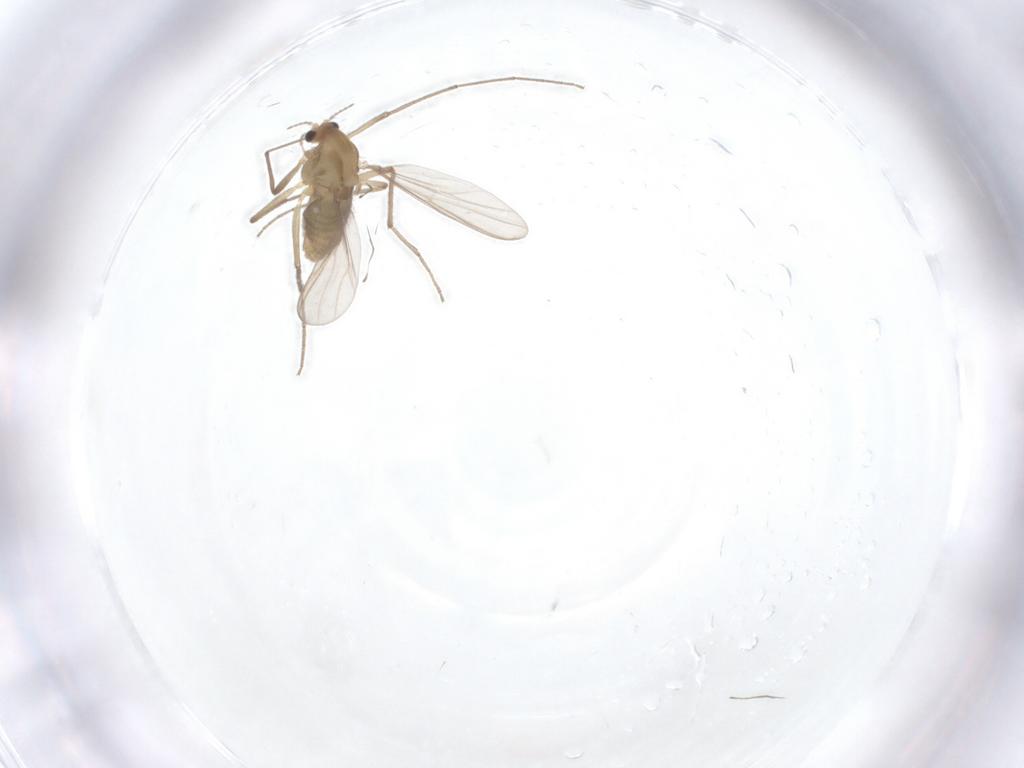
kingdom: Animalia
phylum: Arthropoda
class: Insecta
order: Diptera
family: Chironomidae
